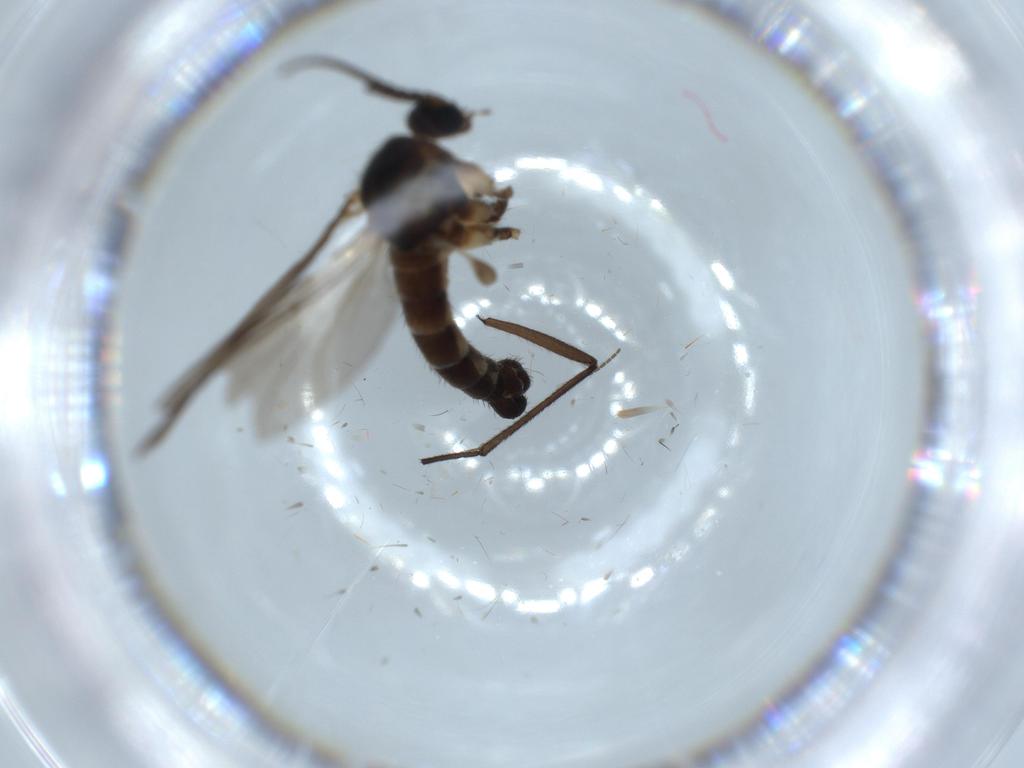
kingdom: Animalia
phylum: Arthropoda
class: Insecta
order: Diptera
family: Sciaridae
